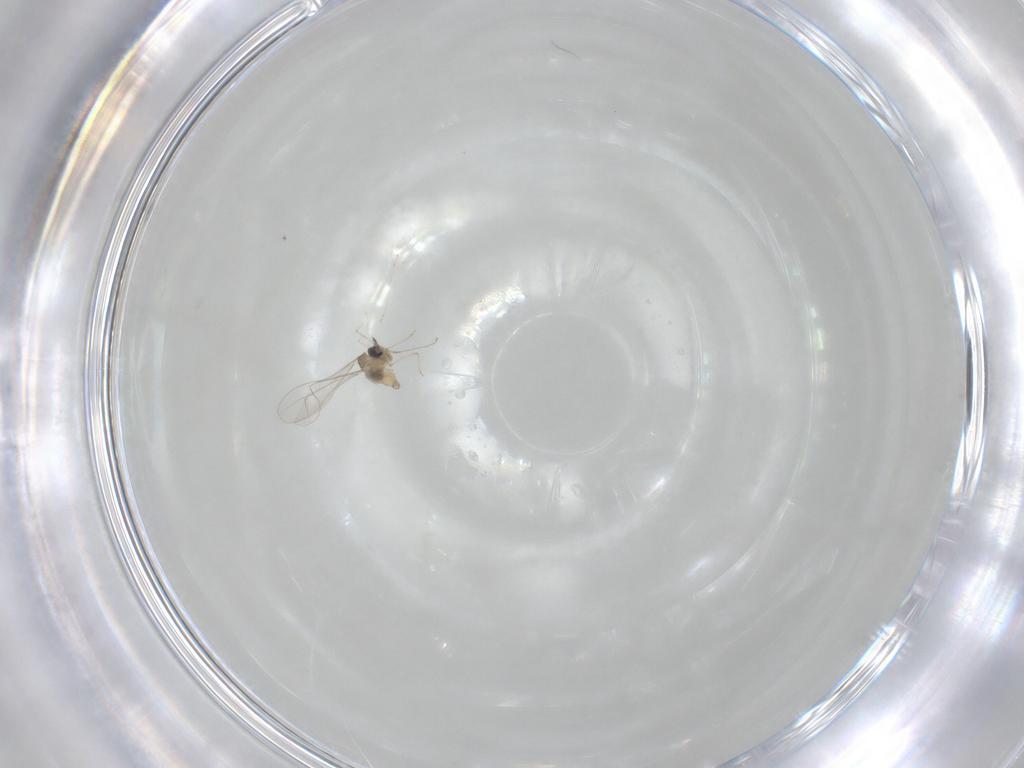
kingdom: Animalia
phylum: Arthropoda
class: Insecta
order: Diptera
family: Cecidomyiidae
